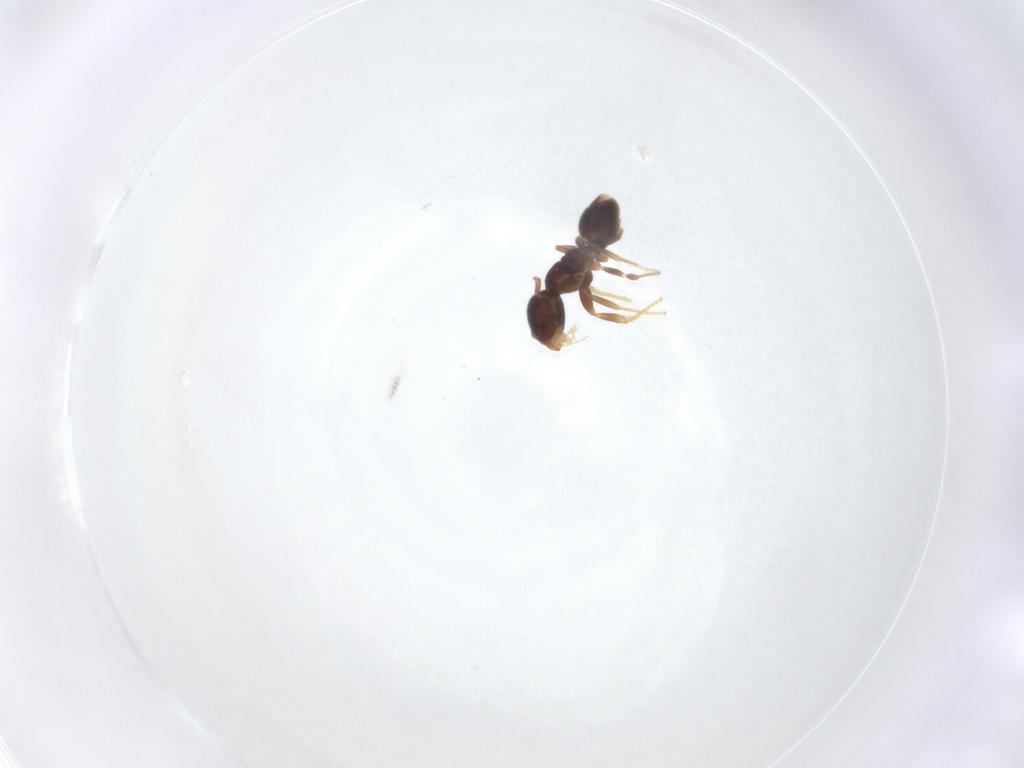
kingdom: Animalia
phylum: Arthropoda
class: Insecta
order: Hymenoptera
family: Formicidae
